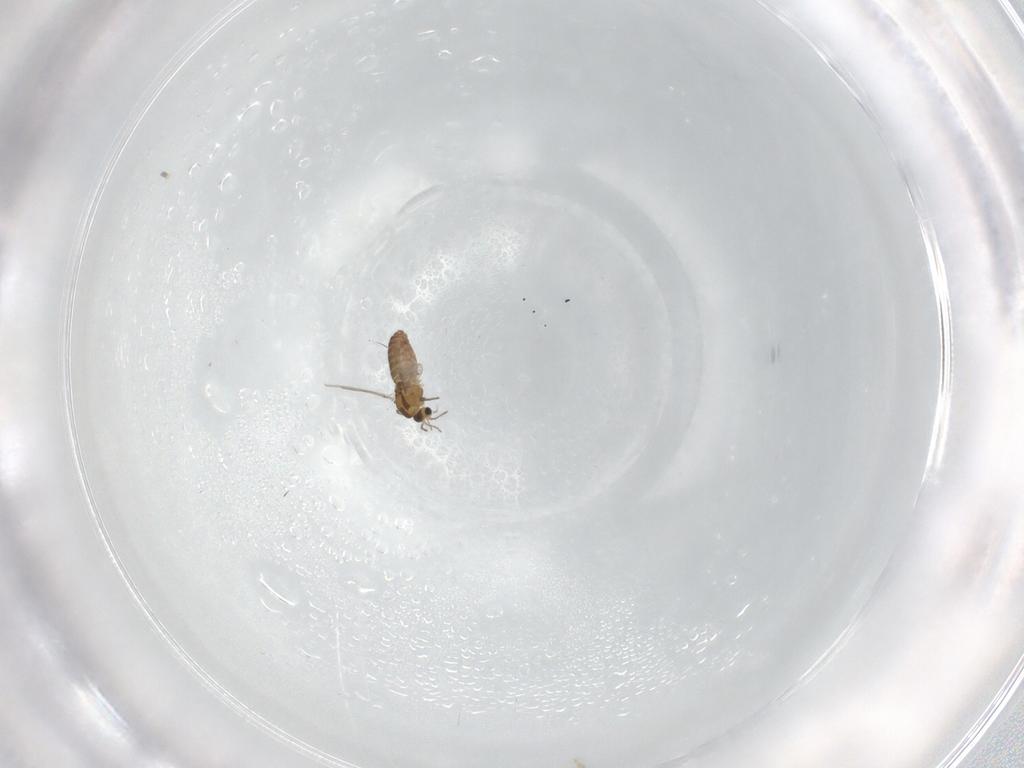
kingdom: Animalia
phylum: Arthropoda
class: Insecta
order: Diptera
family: Chironomidae
